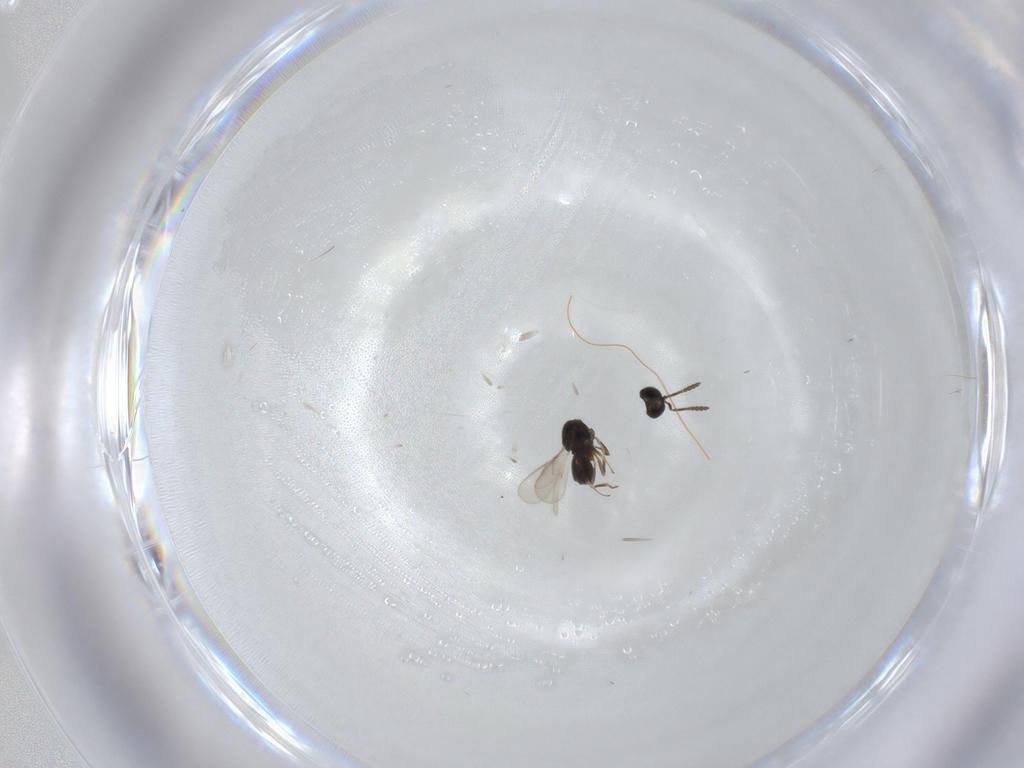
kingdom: Animalia
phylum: Arthropoda
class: Insecta
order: Hymenoptera
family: Scelionidae
